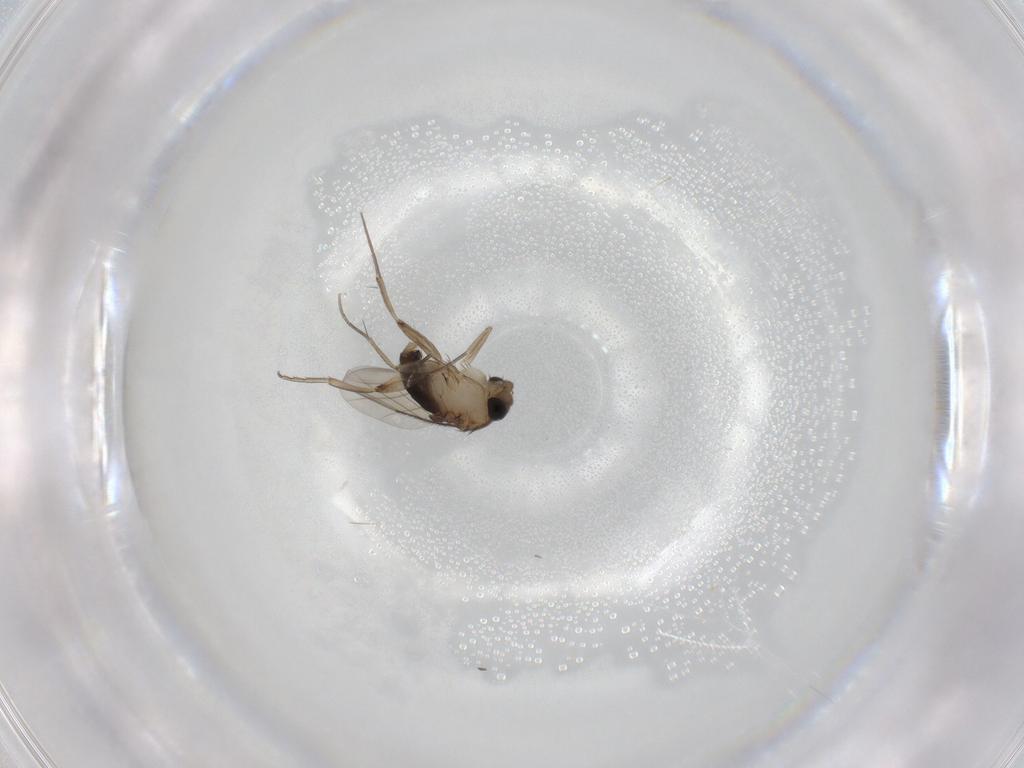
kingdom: Animalia
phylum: Arthropoda
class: Insecta
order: Diptera
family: Phoridae
